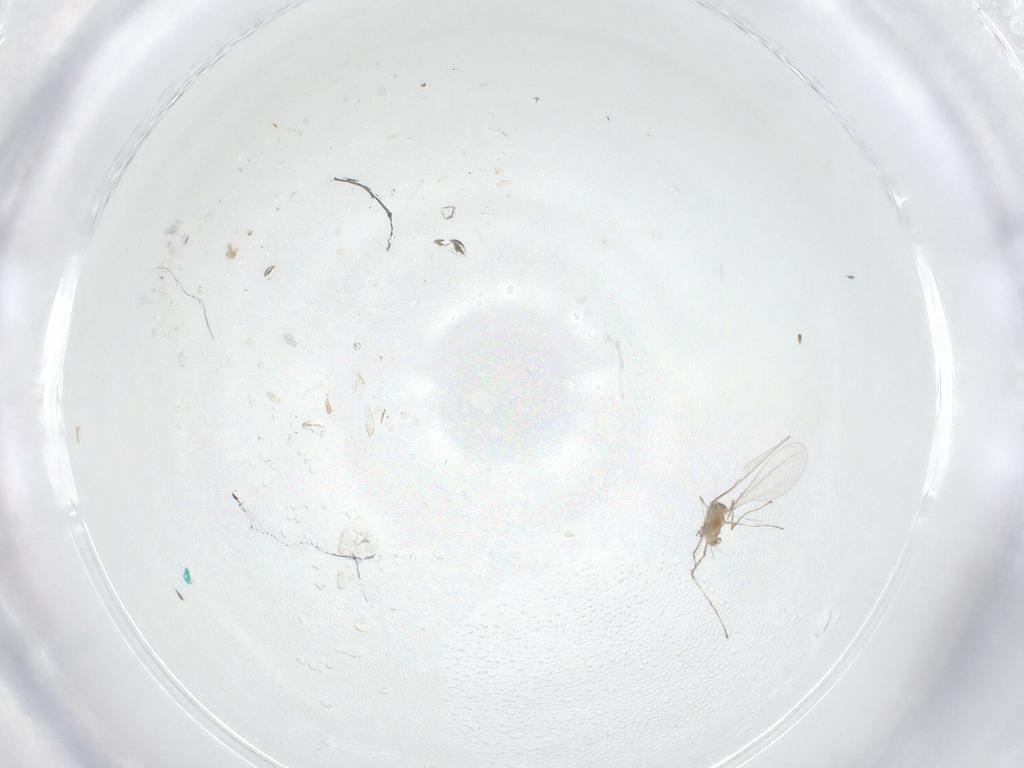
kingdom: Animalia
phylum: Arthropoda
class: Insecta
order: Diptera
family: Cecidomyiidae
